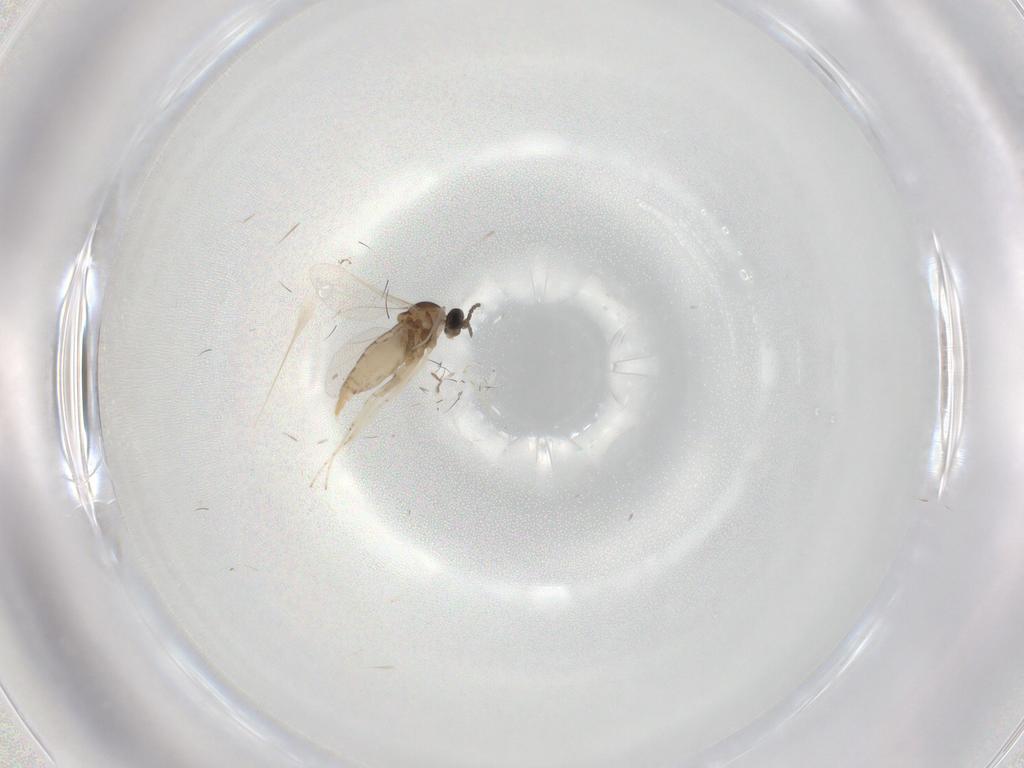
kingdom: Animalia
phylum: Arthropoda
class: Insecta
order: Diptera
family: Cecidomyiidae
